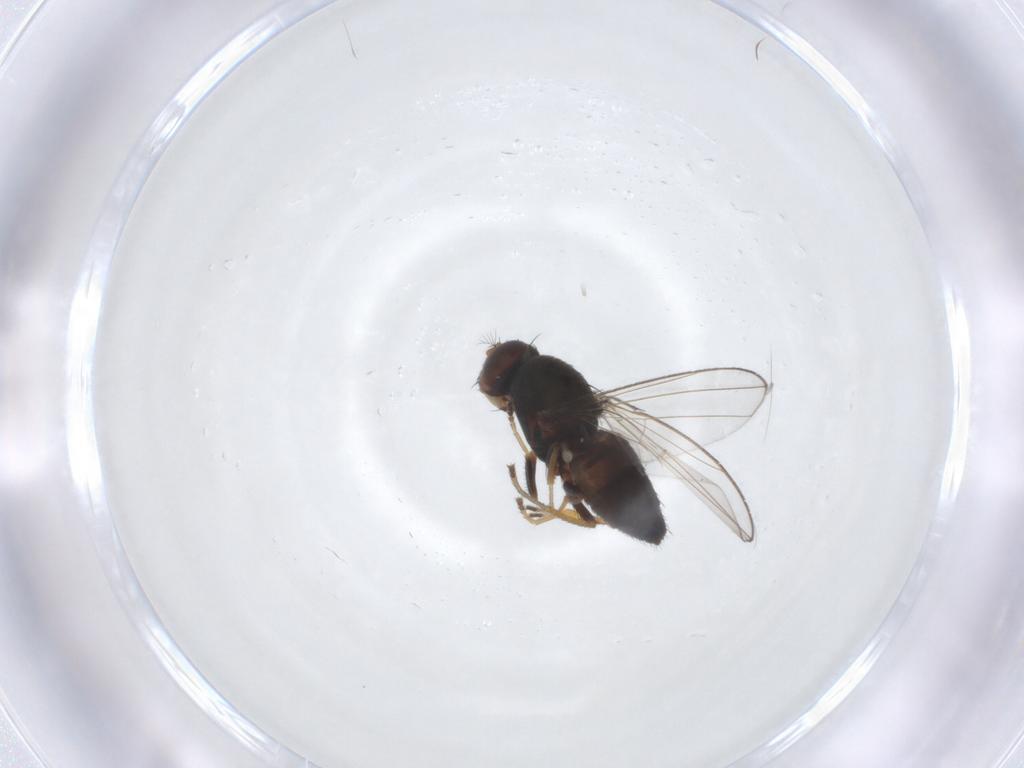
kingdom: Animalia
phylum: Arthropoda
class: Insecta
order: Diptera
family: Ephydridae
